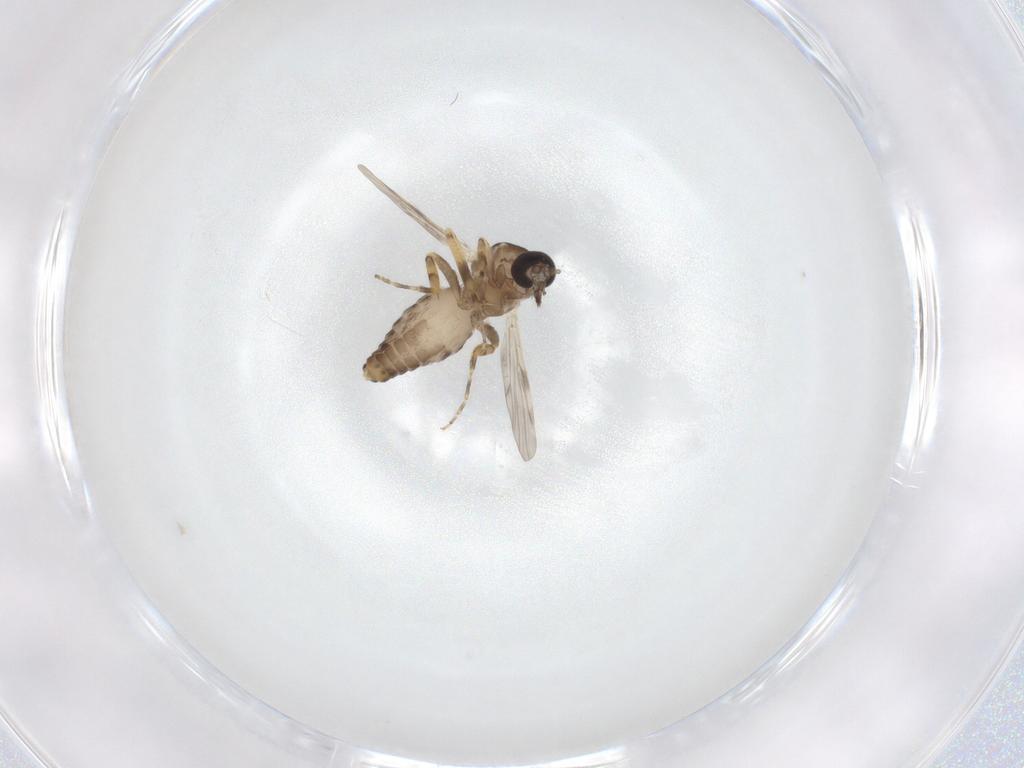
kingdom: Animalia
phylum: Arthropoda
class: Insecta
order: Diptera
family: Ceratopogonidae
